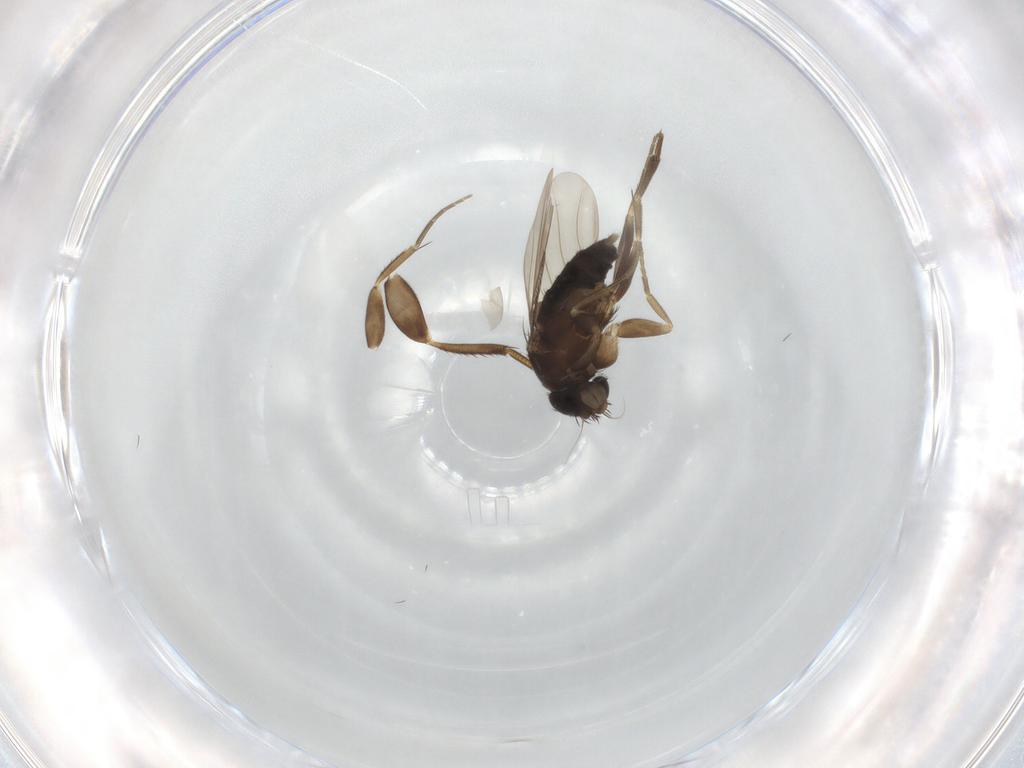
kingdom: Animalia
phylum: Arthropoda
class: Insecta
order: Diptera
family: Phoridae
